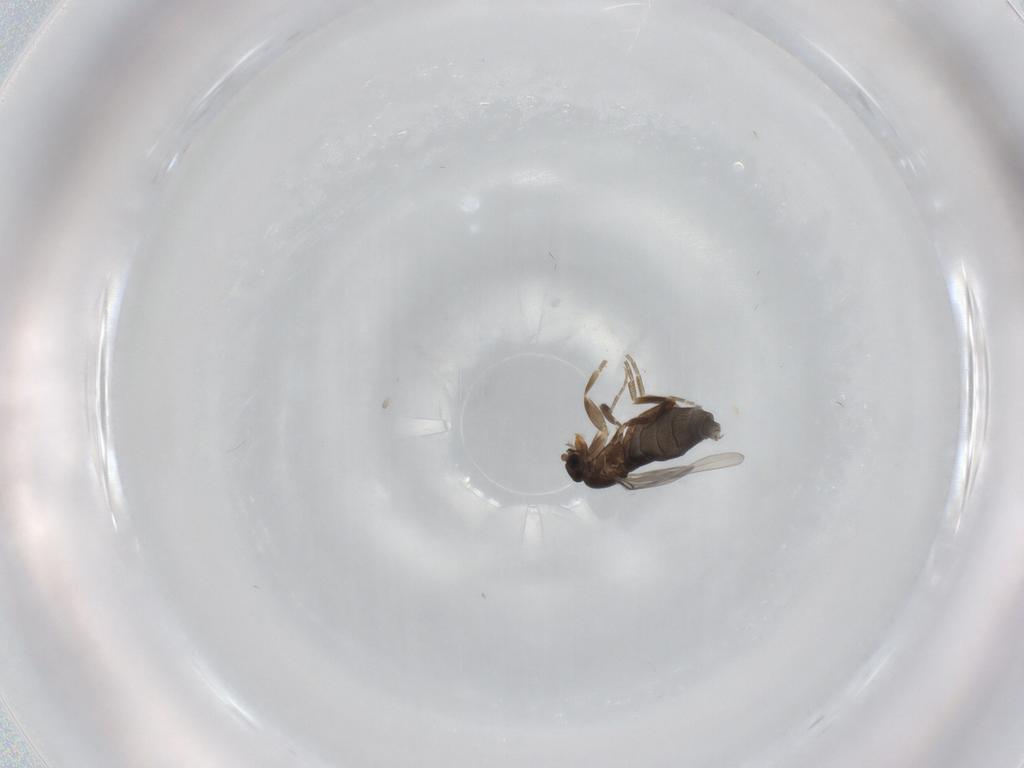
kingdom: Animalia
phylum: Arthropoda
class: Insecta
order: Diptera
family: Phoridae
